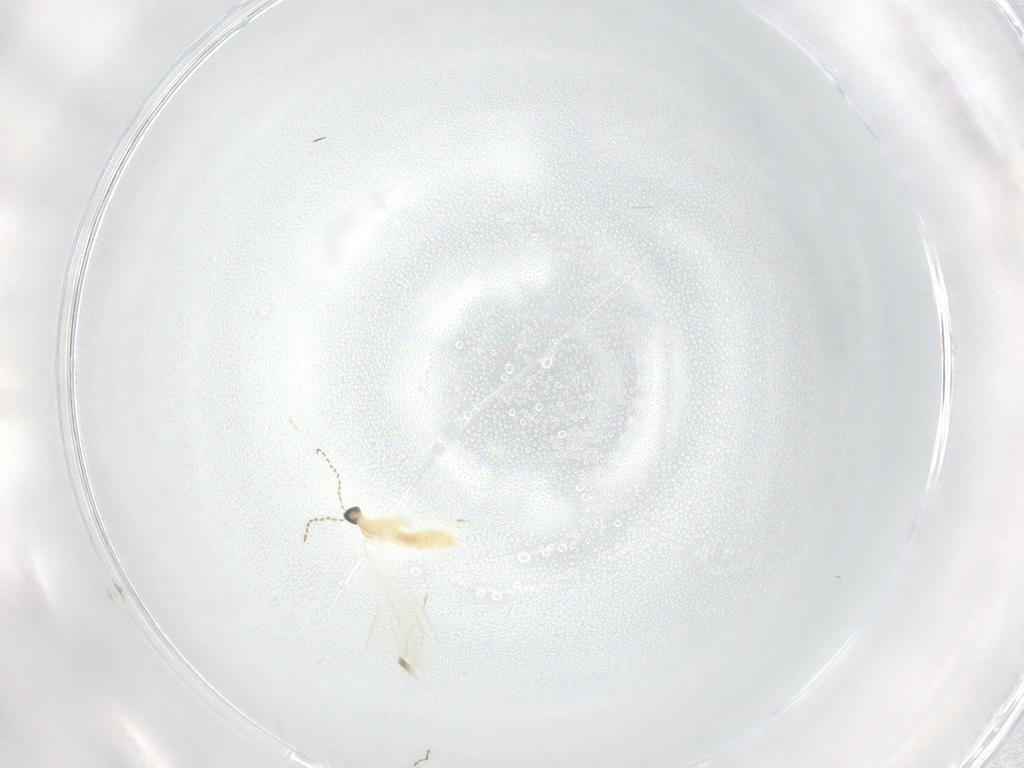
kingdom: Animalia
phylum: Arthropoda
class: Insecta
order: Diptera
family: Cecidomyiidae
